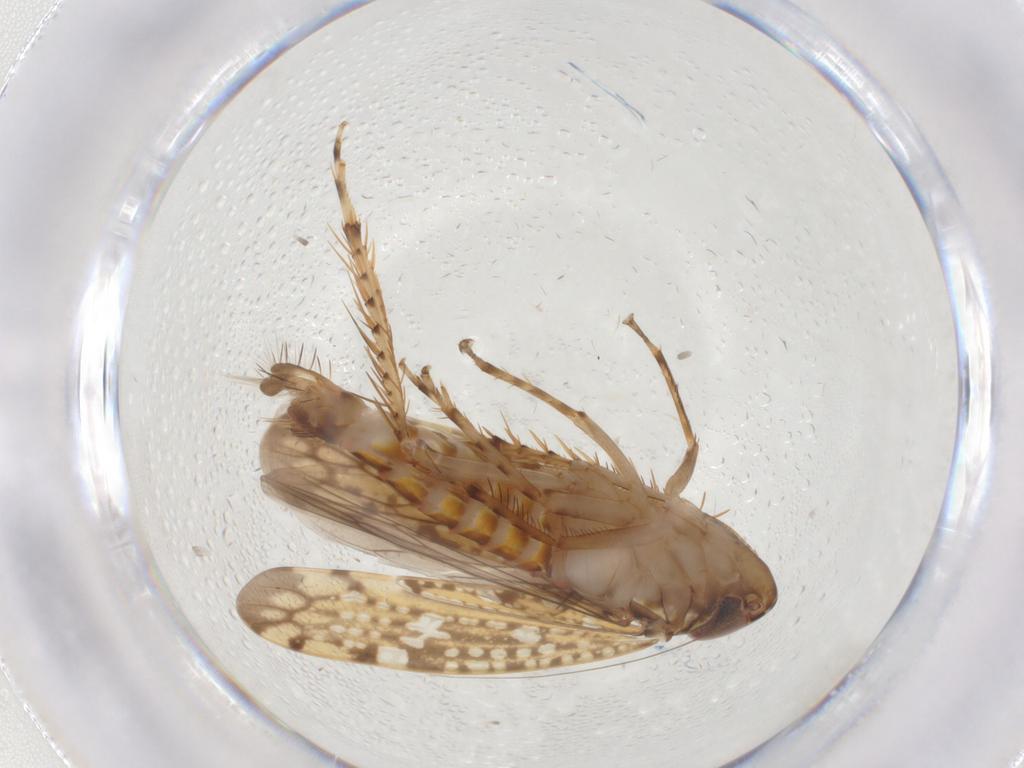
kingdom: Animalia
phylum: Arthropoda
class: Insecta
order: Hemiptera
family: Cicadellidae
